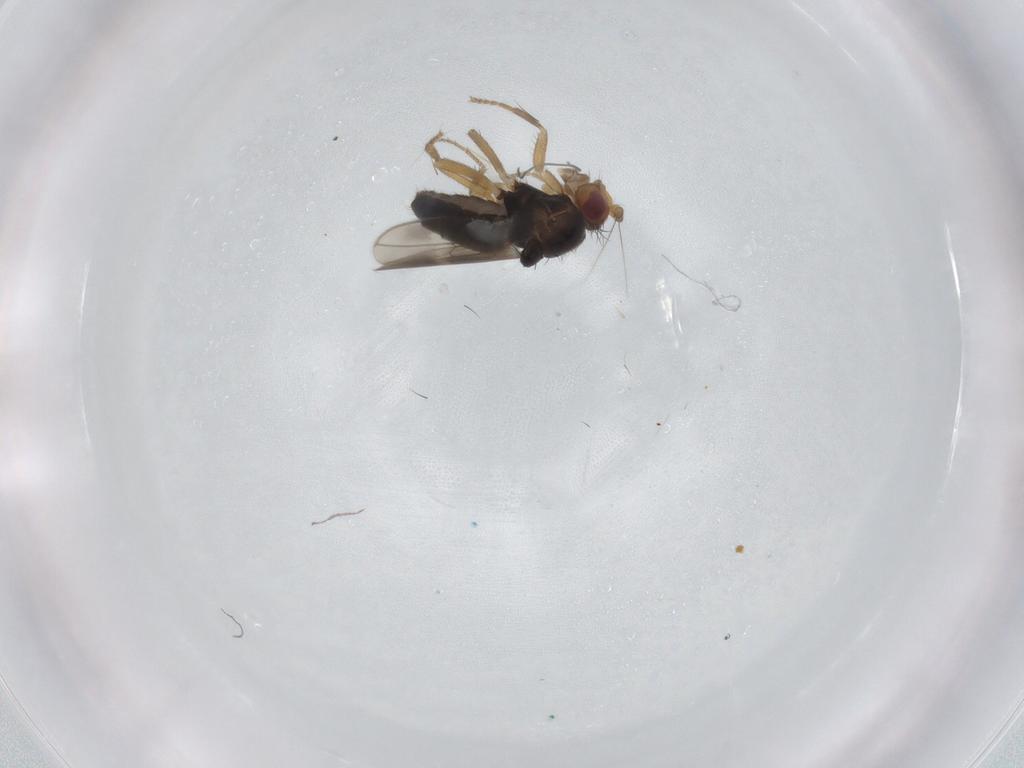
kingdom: Animalia
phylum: Arthropoda
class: Insecta
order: Diptera
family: Sphaeroceridae
